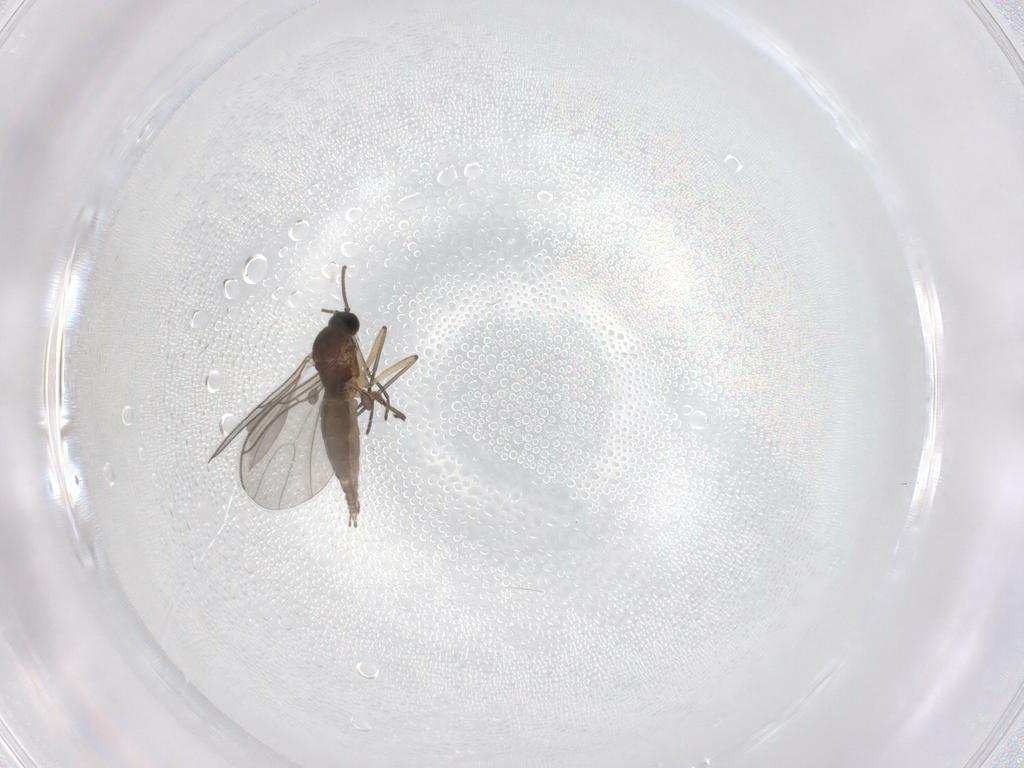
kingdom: Animalia
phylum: Arthropoda
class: Insecta
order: Diptera
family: Sciaridae
